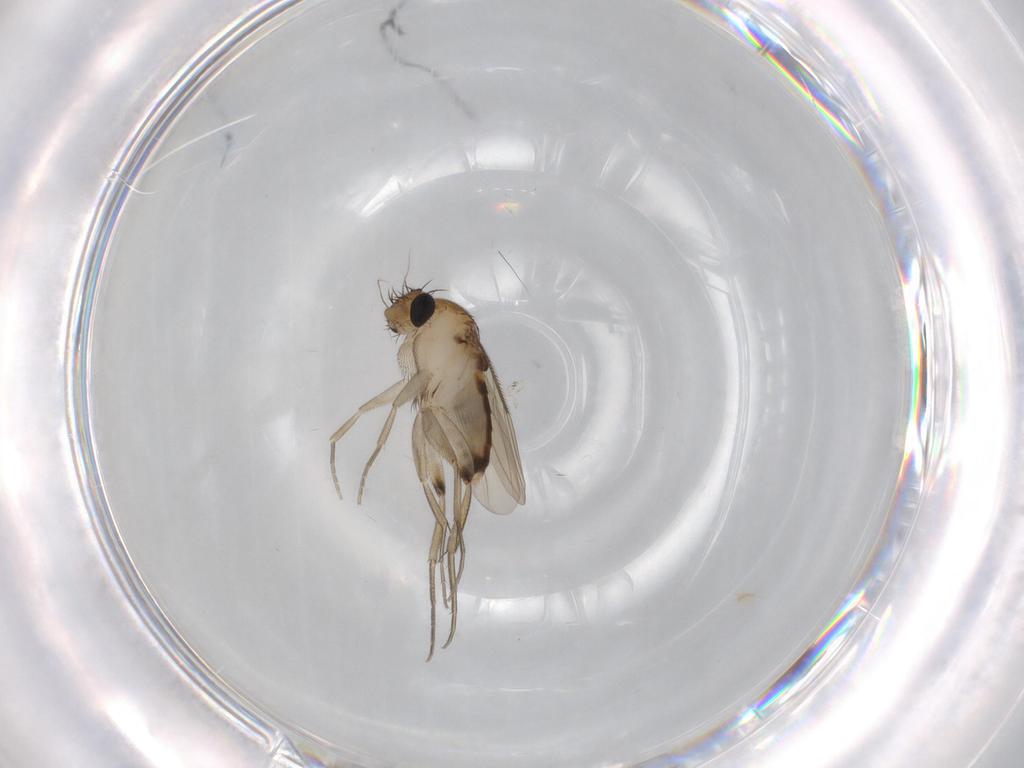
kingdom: Animalia
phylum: Arthropoda
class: Insecta
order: Diptera
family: Phoridae
